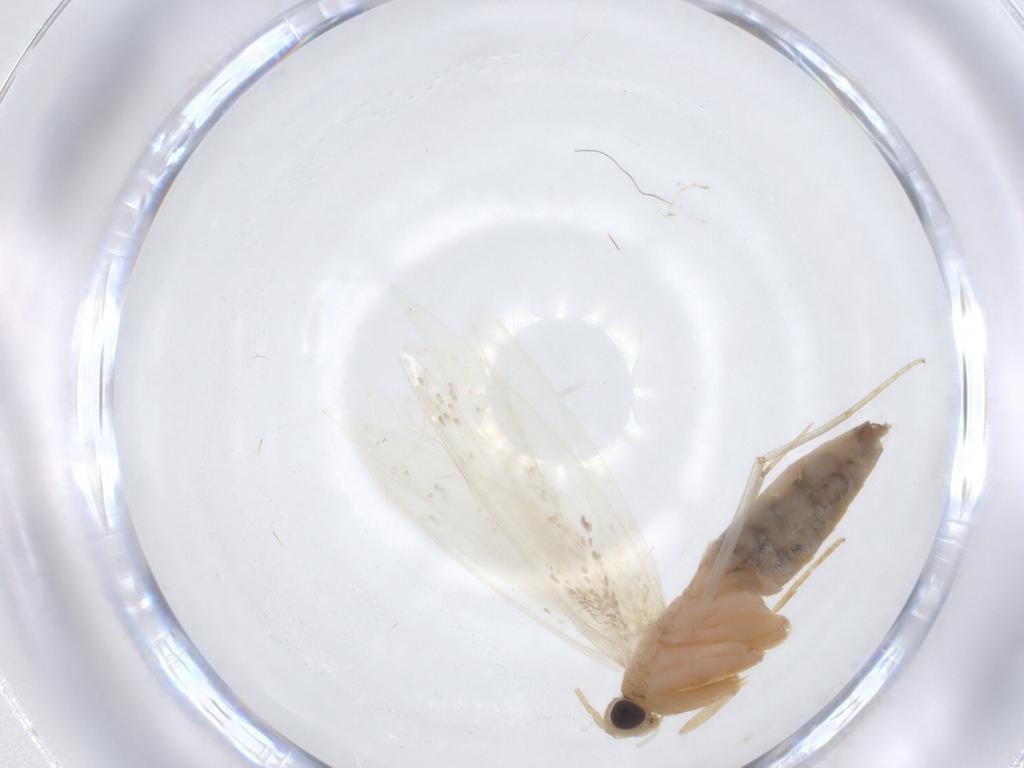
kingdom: Animalia
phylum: Arthropoda
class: Insecta
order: Lepidoptera
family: Tineidae
